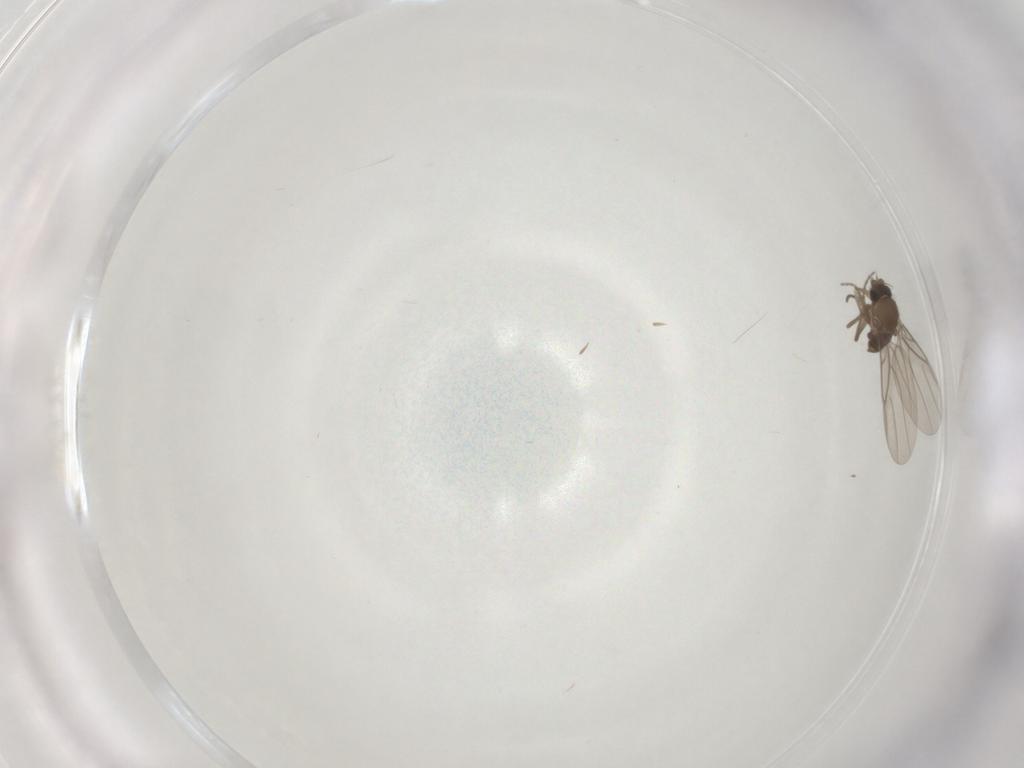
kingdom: Animalia
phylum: Arthropoda
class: Insecta
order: Diptera
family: Phoridae
